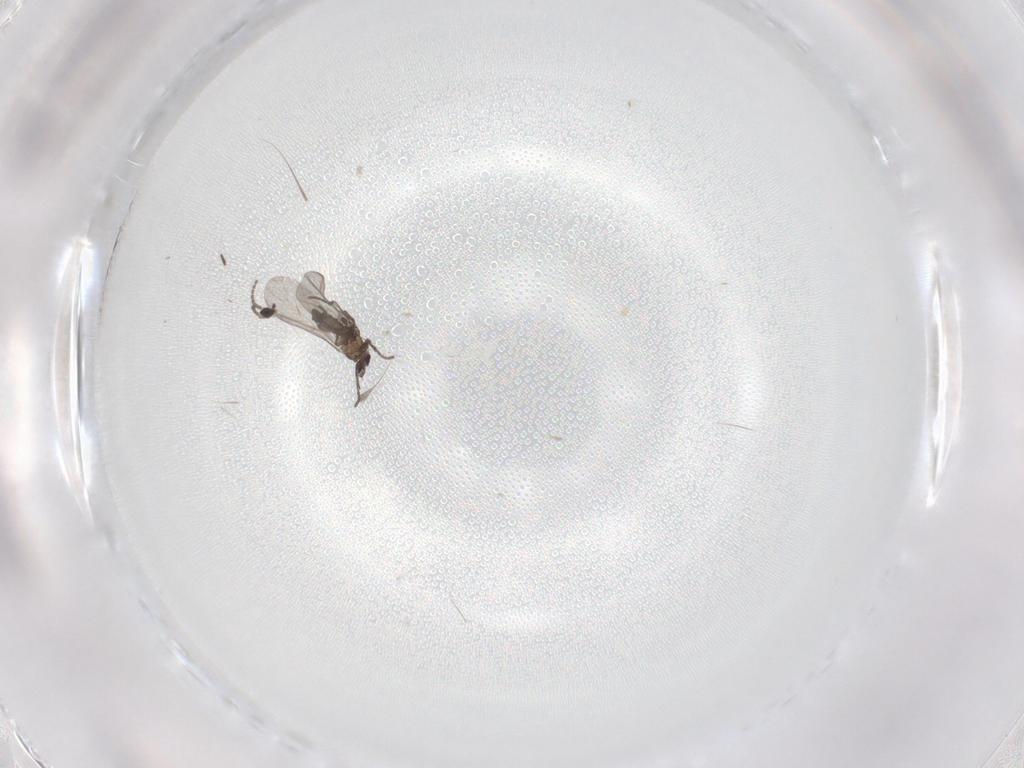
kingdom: Animalia
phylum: Arthropoda
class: Insecta
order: Diptera
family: Sciaridae
